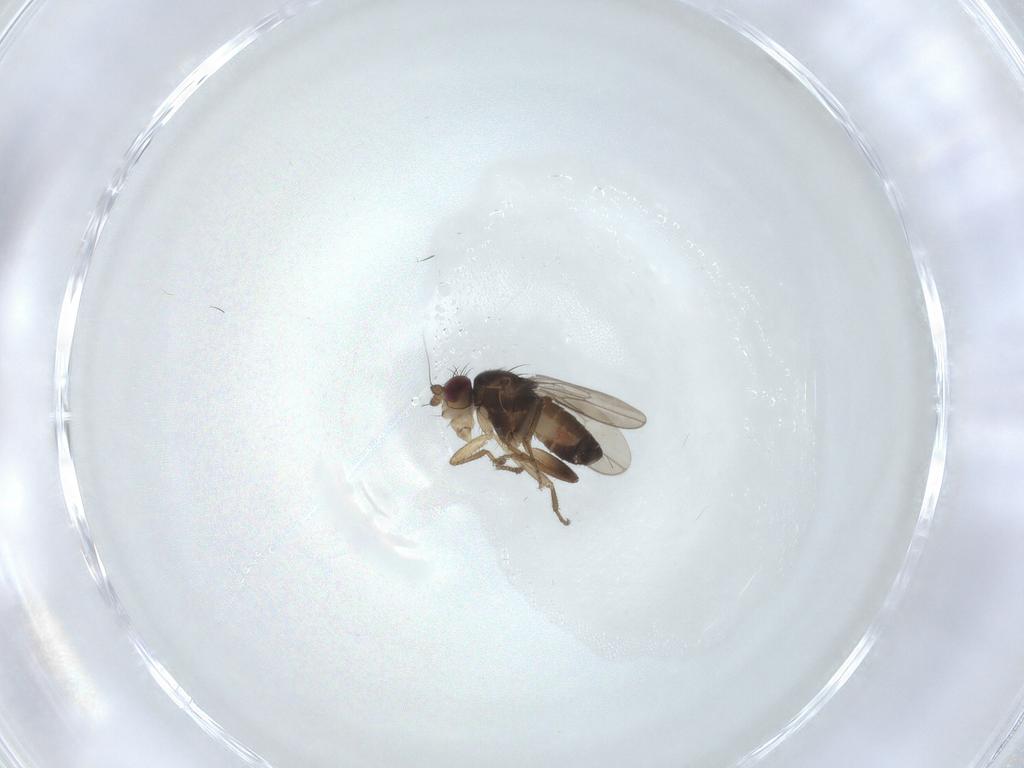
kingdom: Animalia
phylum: Arthropoda
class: Insecta
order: Diptera
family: Sphaeroceridae
